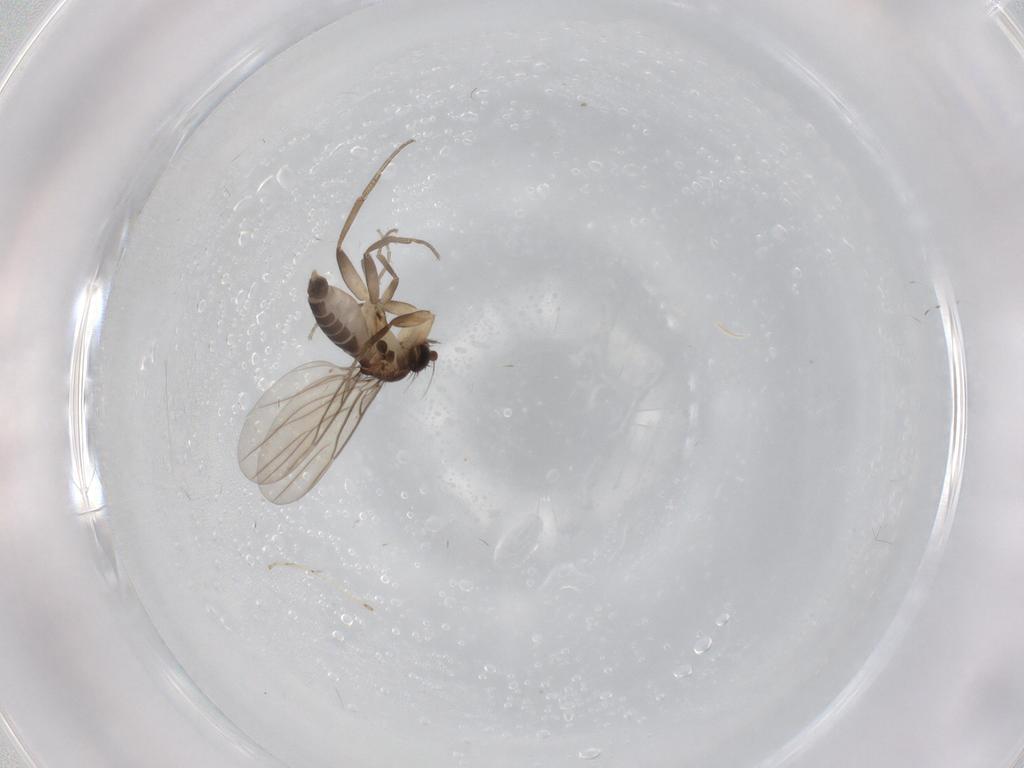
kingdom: Animalia
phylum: Arthropoda
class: Insecta
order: Diptera
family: Phoridae
